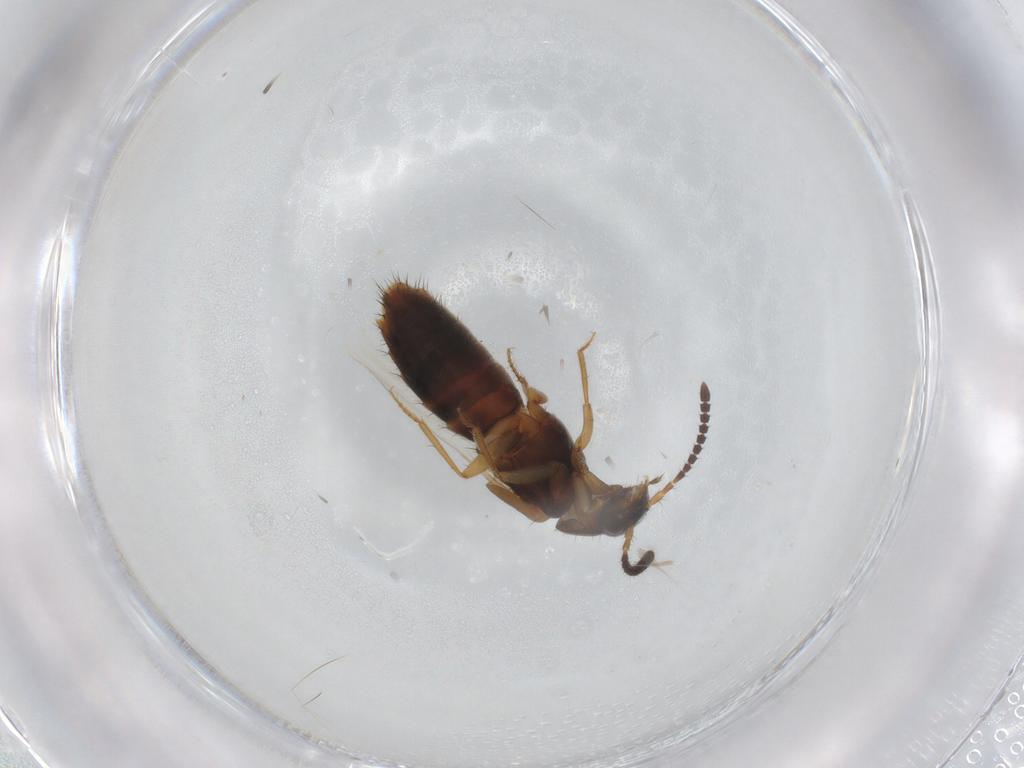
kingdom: Animalia
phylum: Arthropoda
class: Insecta
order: Coleoptera
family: Staphylinidae
